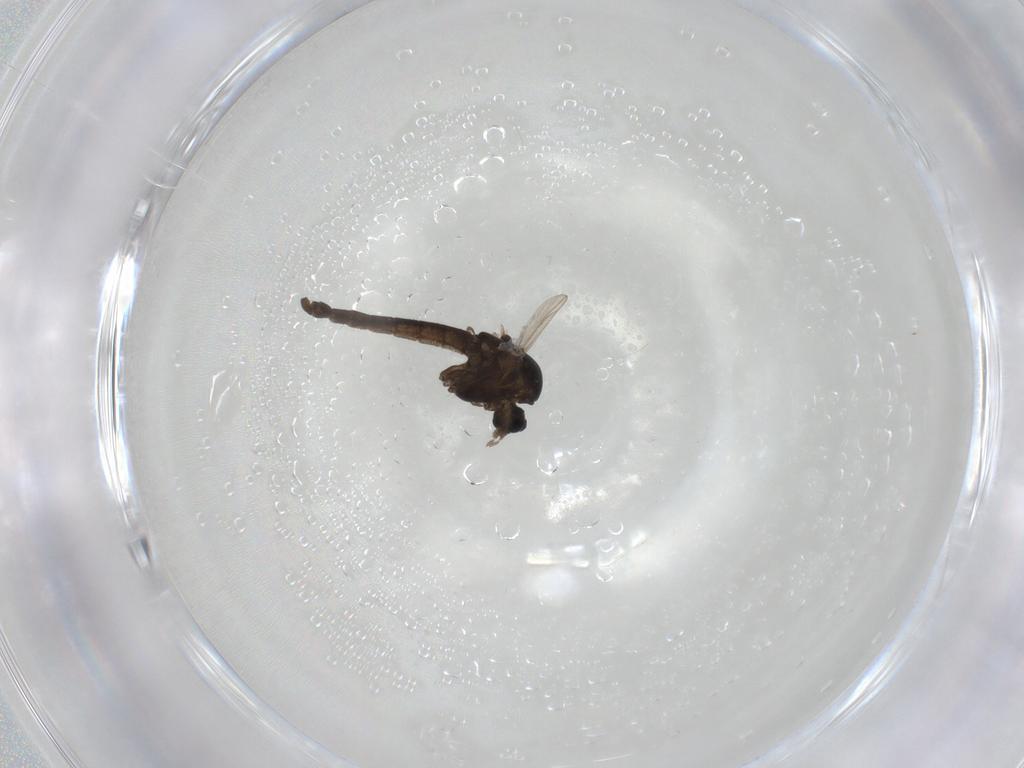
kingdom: Animalia
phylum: Arthropoda
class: Insecta
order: Diptera
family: Chironomidae
